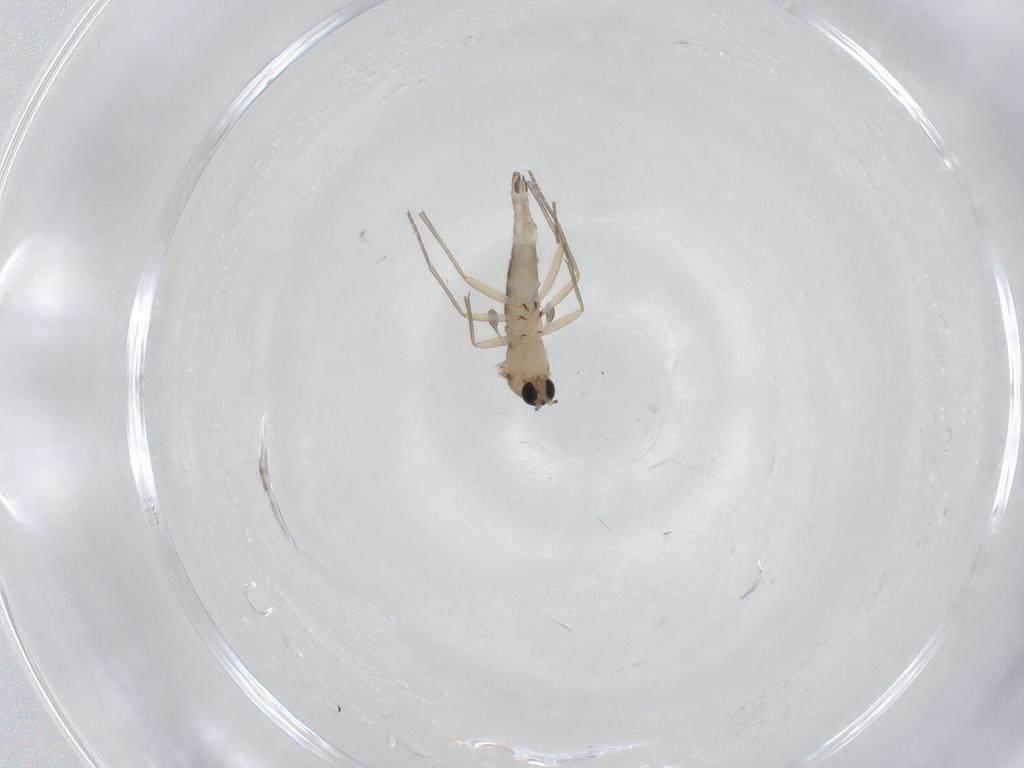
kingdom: Animalia
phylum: Arthropoda
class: Insecta
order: Diptera
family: Sciaridae
